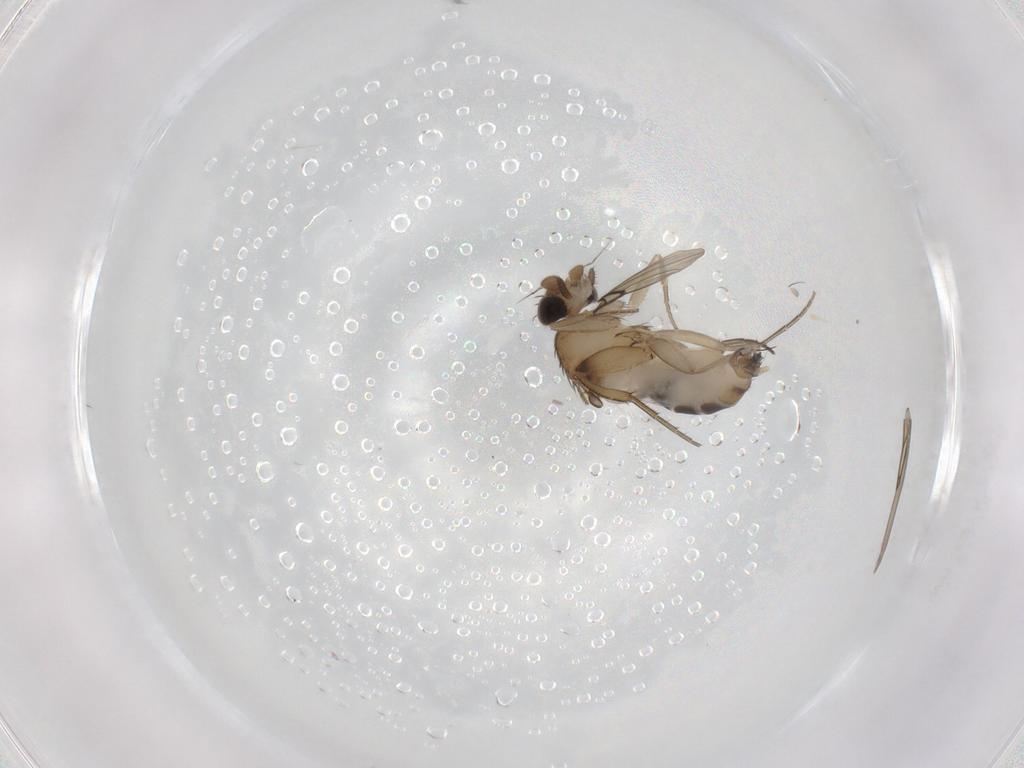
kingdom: Animalia
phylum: Arthropoda
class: Insecta
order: Diptera
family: Phoridae
